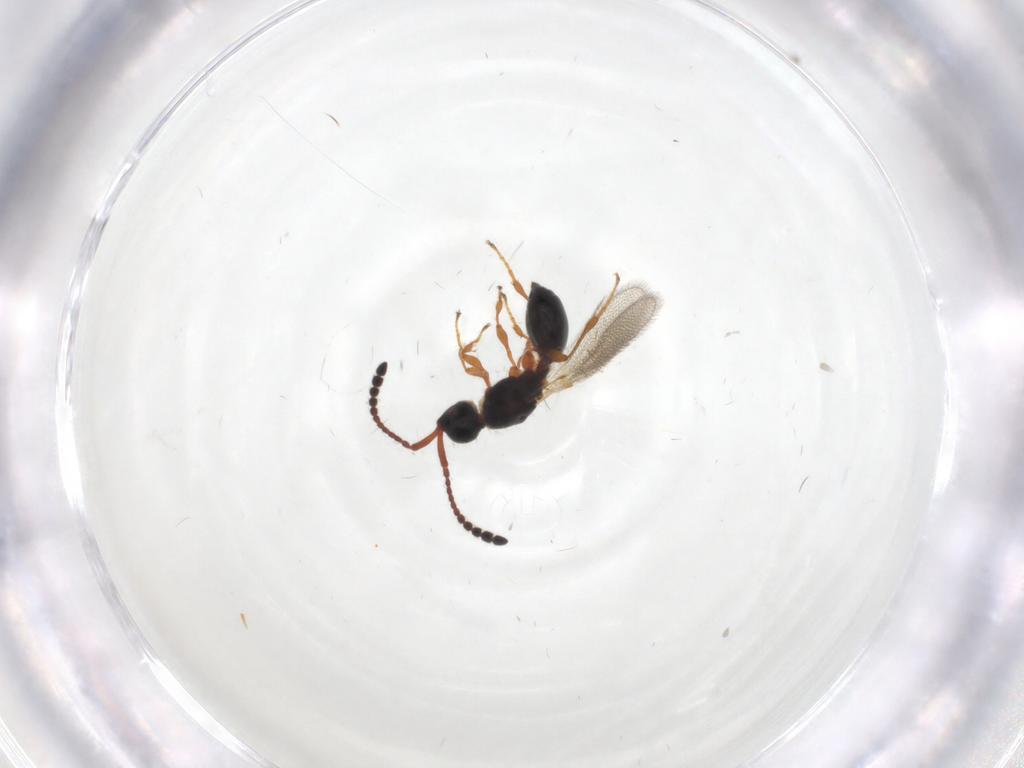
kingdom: Animalia
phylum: Arthropoda
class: Insecta
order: Hymenoptera
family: Diapriidae
